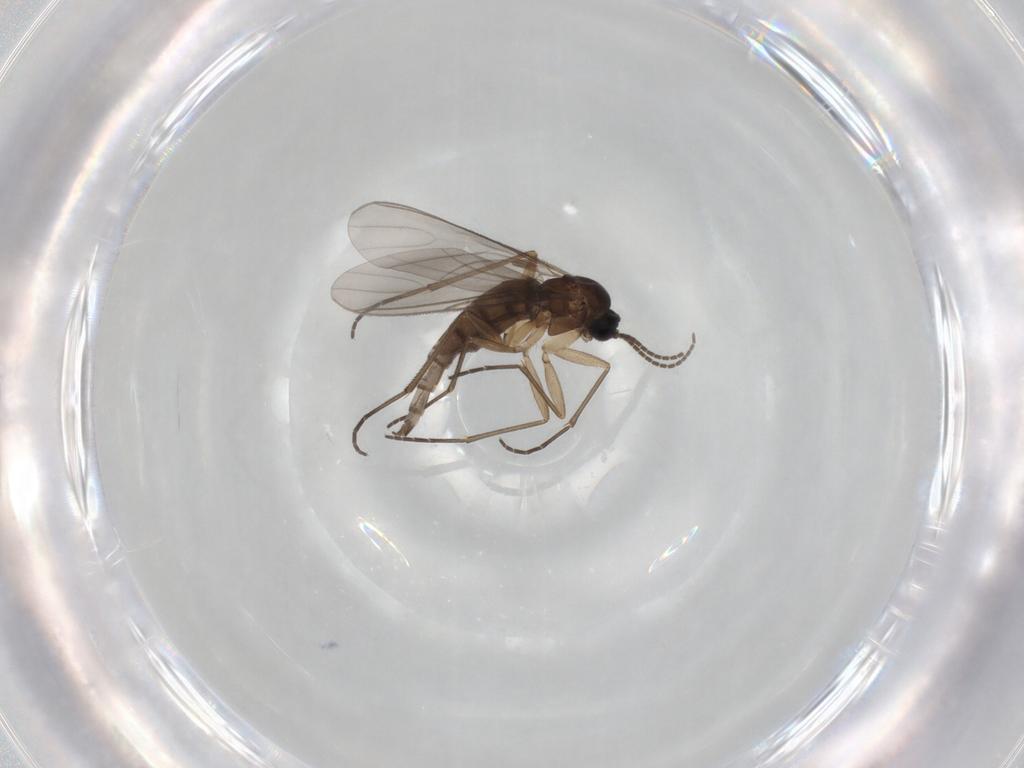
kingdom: Animalia
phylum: Arthropoda
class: Insecta
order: Diptera
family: Sciaridae
